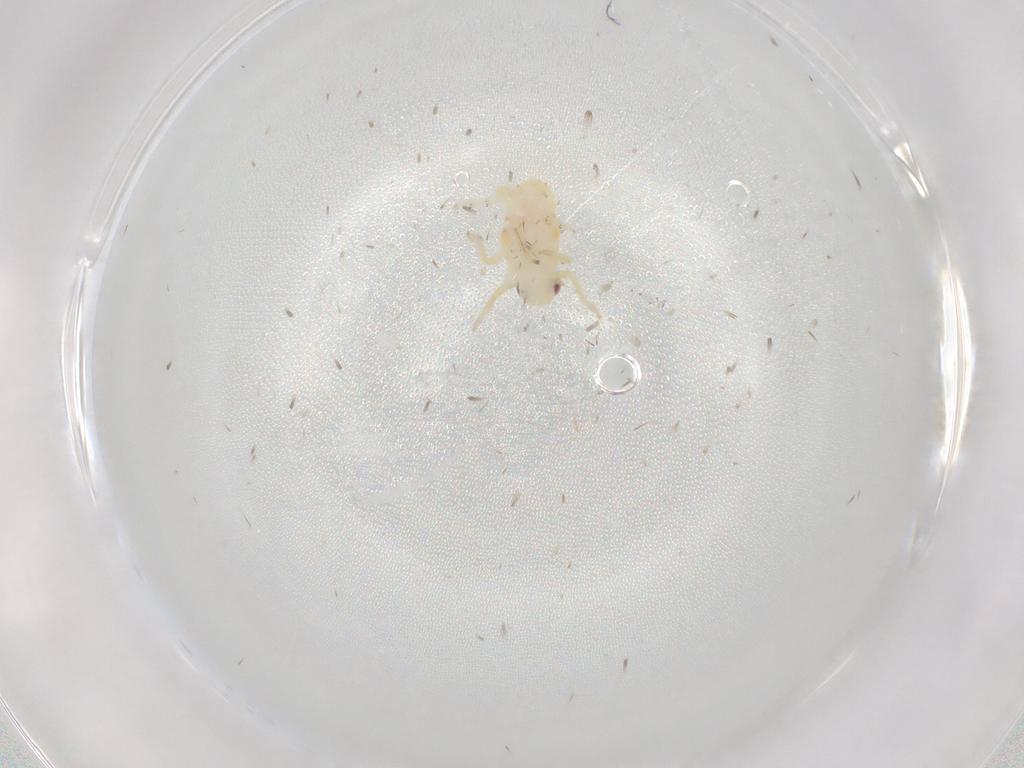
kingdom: Animalia
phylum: Arthropoda
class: Insecta
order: Hemiptera
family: Tropiduchidae
